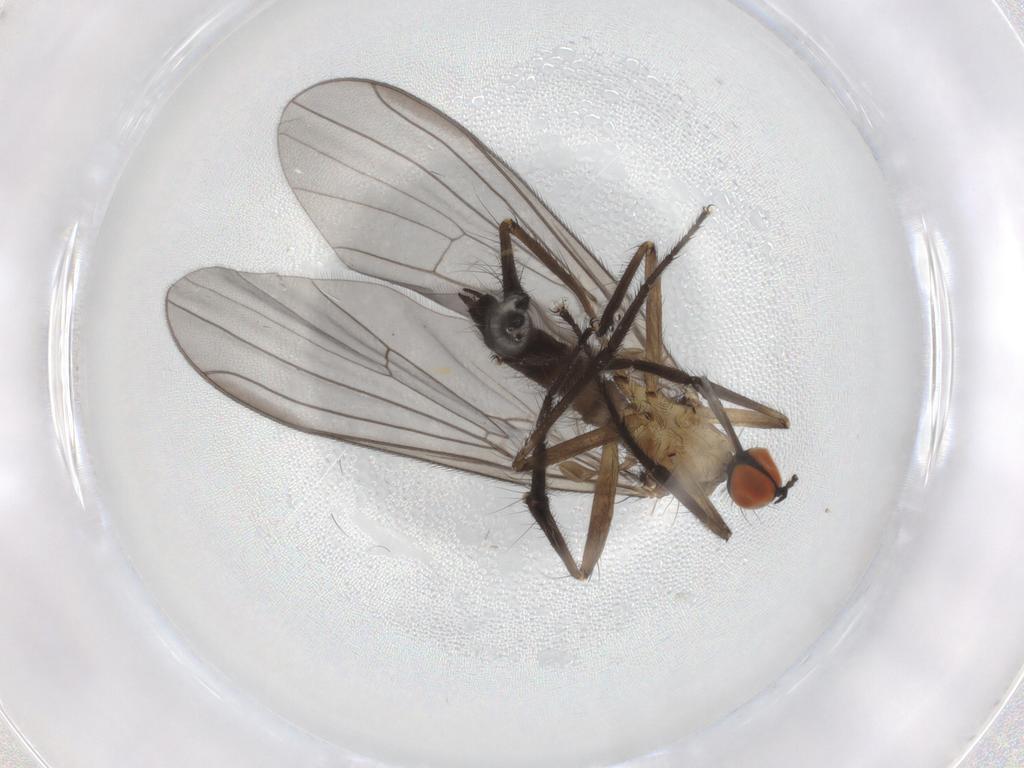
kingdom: Animalia
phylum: Arthropoda
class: Insecta
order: Diptera
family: Empididae
